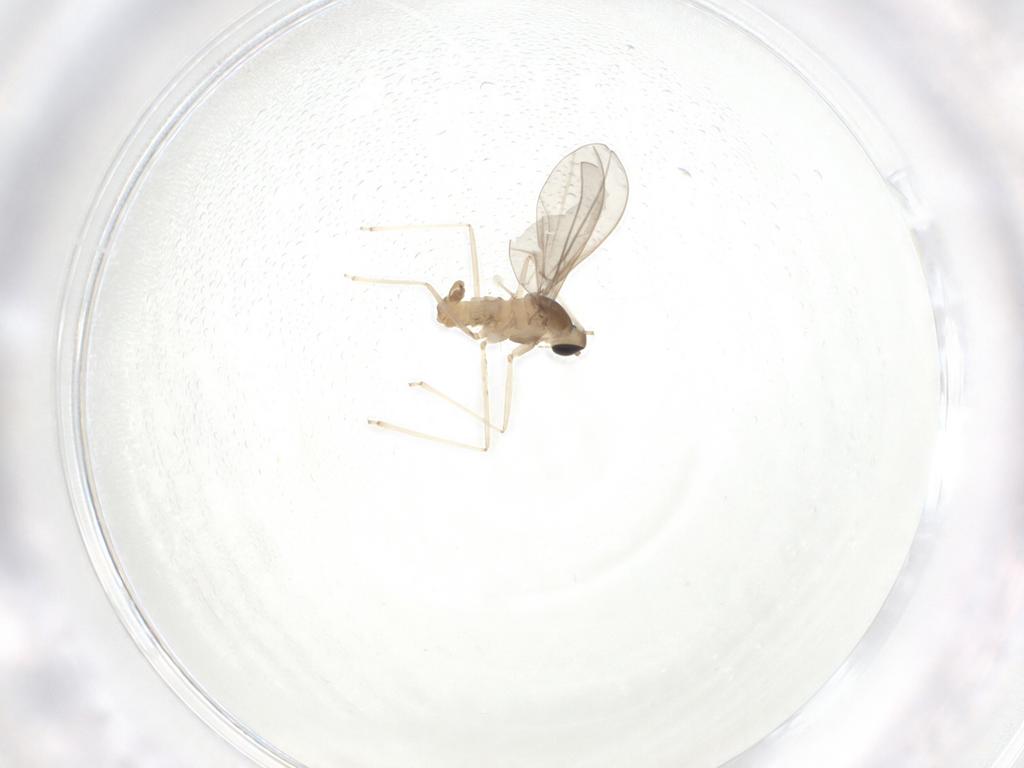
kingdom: Animalia
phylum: Arthropoda
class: Insecta
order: Diptera
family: Cecidomyiidae
